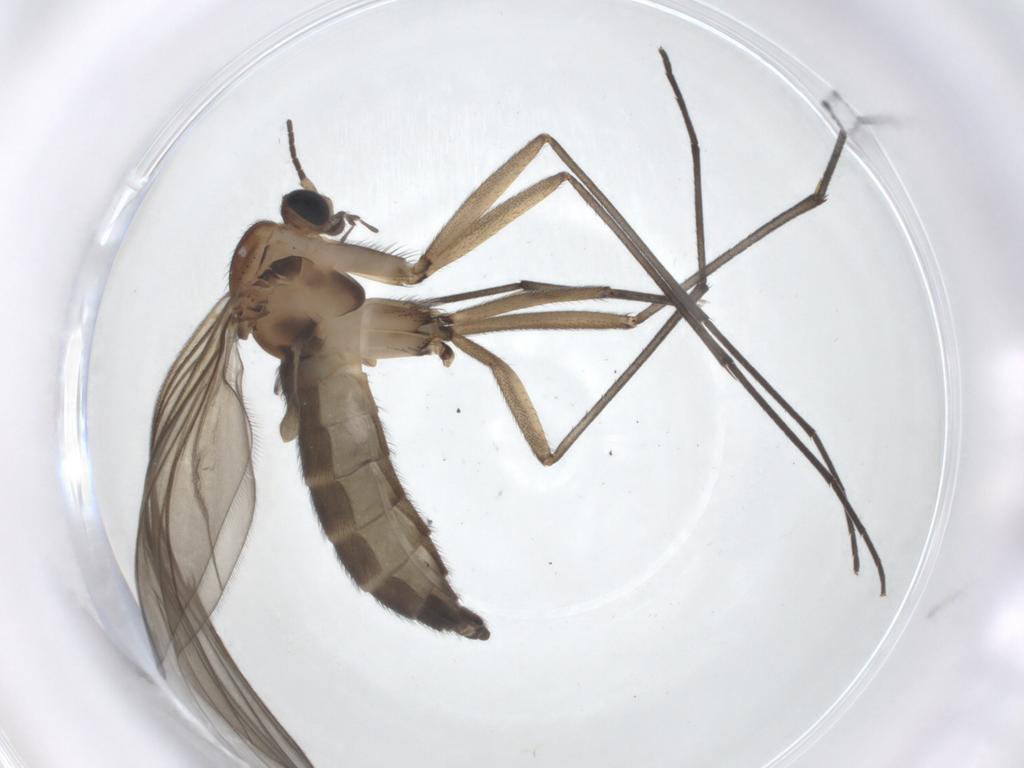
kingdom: Animalia
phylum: Arthropoda
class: Insecta
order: Diptera
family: Sciaridae
